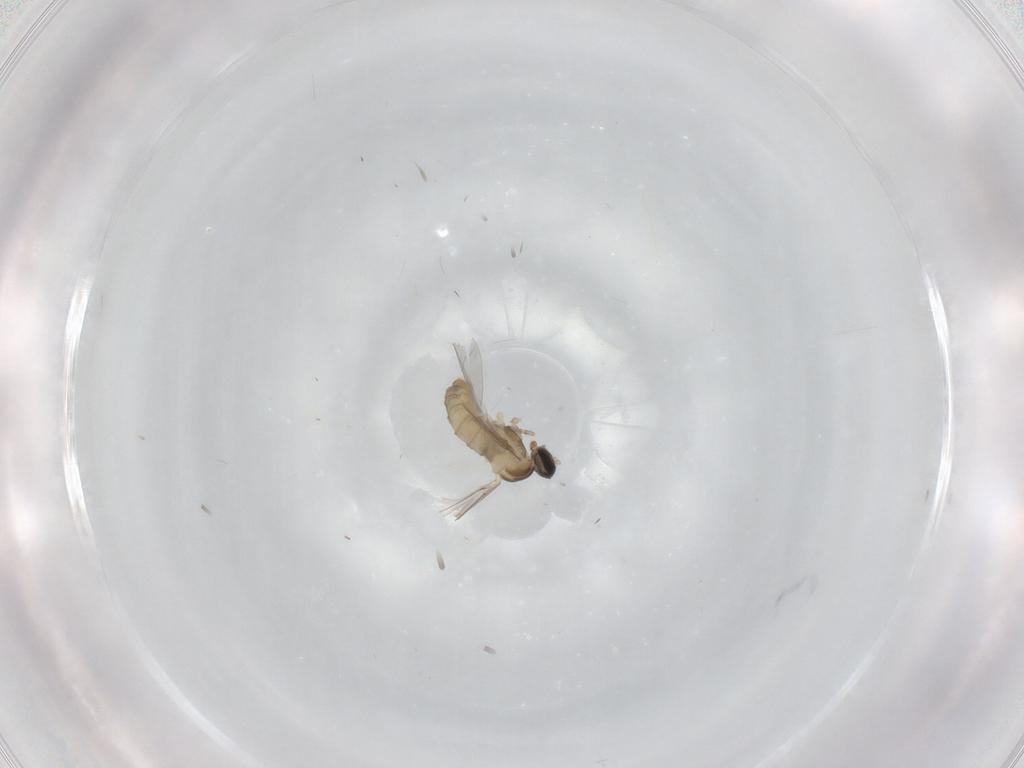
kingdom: Animalia
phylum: Arthropoda
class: Insecta
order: Diptera
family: Cecidomyiidae
